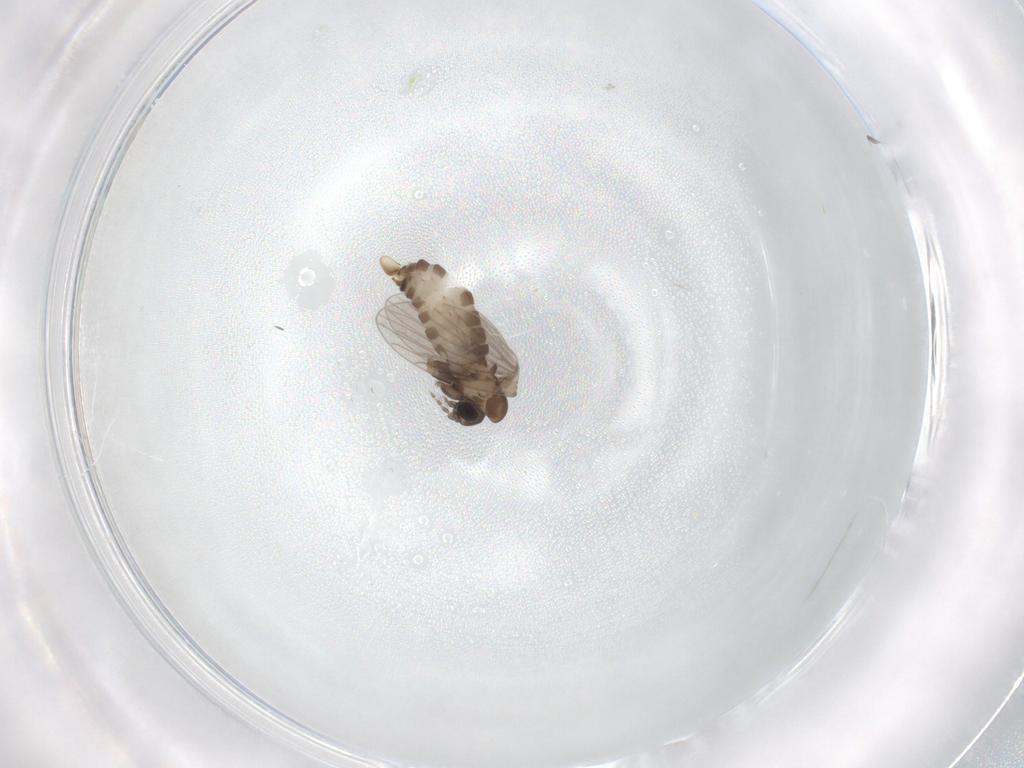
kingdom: Animalia
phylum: Arthropoda
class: Insecta
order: Diptera
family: Psychodidae
